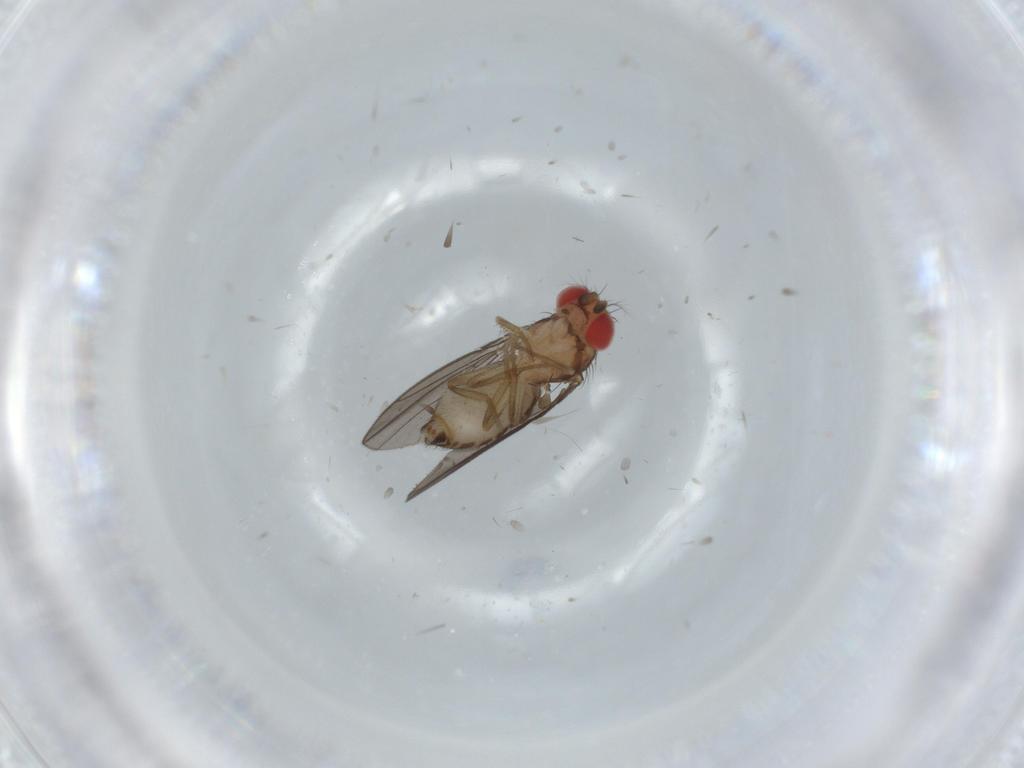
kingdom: Animalia
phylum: Arthropoda
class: Insecta
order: Diptera
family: Drosophilidae
